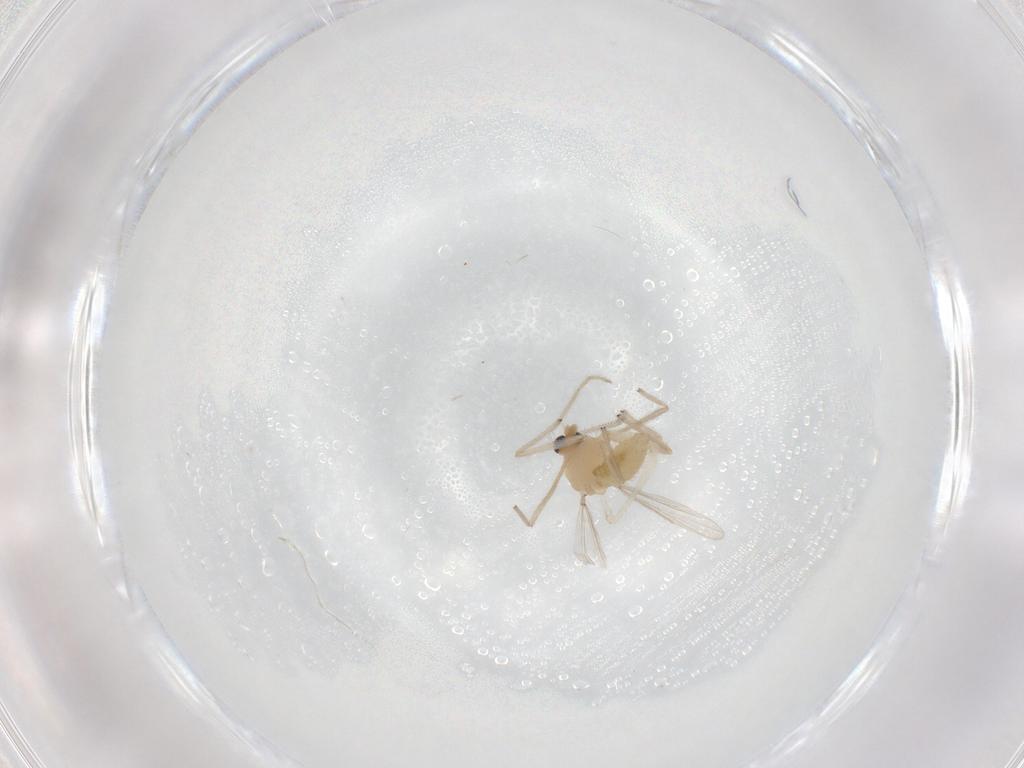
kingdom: Animalia
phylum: Arthropoda
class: Insecta
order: Diptera
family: Chironomidae
